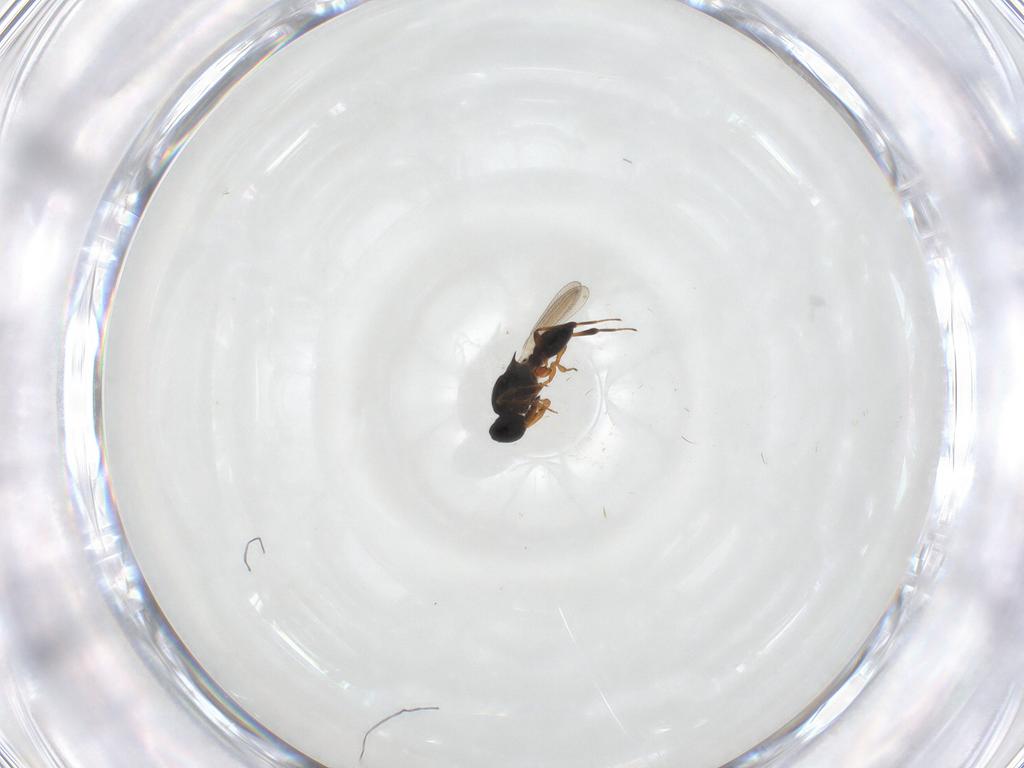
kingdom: Animalia
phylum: Arthropoda
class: Insecta
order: Hymenoptera
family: Platygastridae
